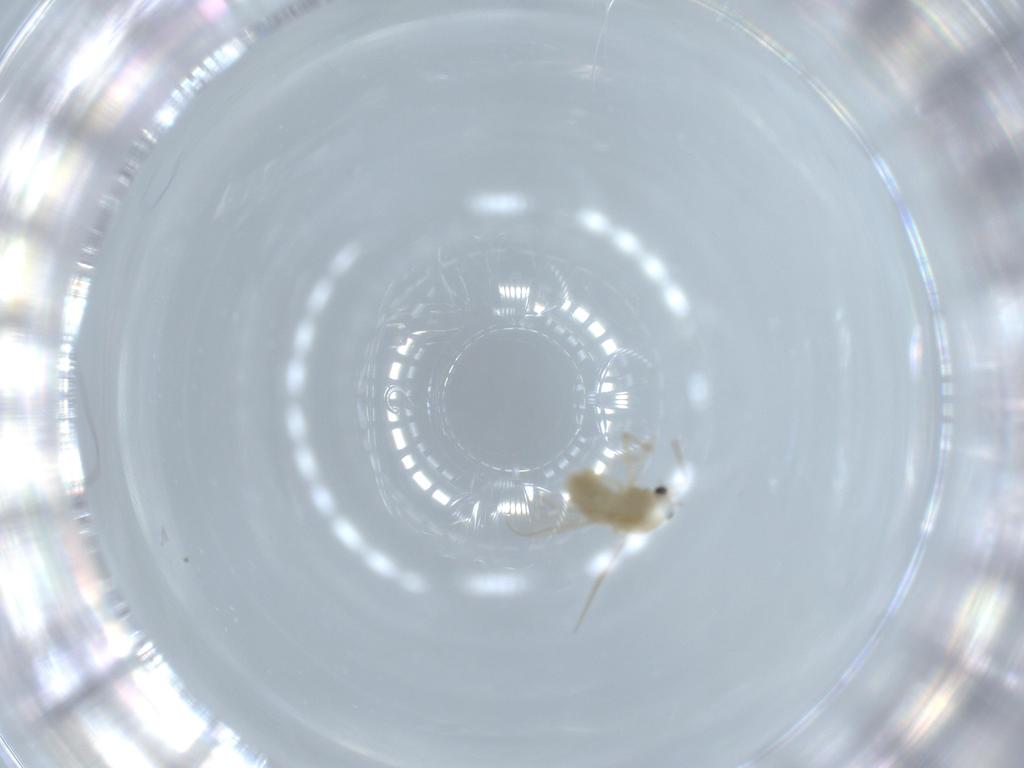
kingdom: Animalia
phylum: Arthropoda
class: Insecta
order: Diptera
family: Chironomidae
